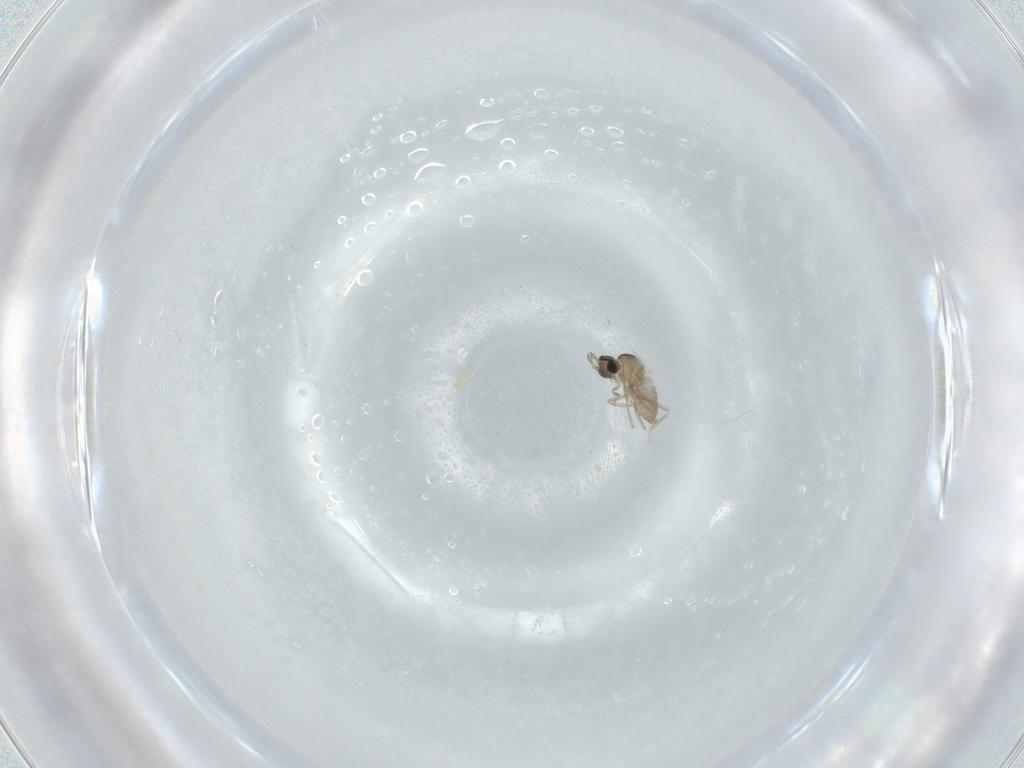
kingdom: Animalia
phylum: Arthropoda
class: Insecta
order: Diptera
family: Cecidomyiidae
